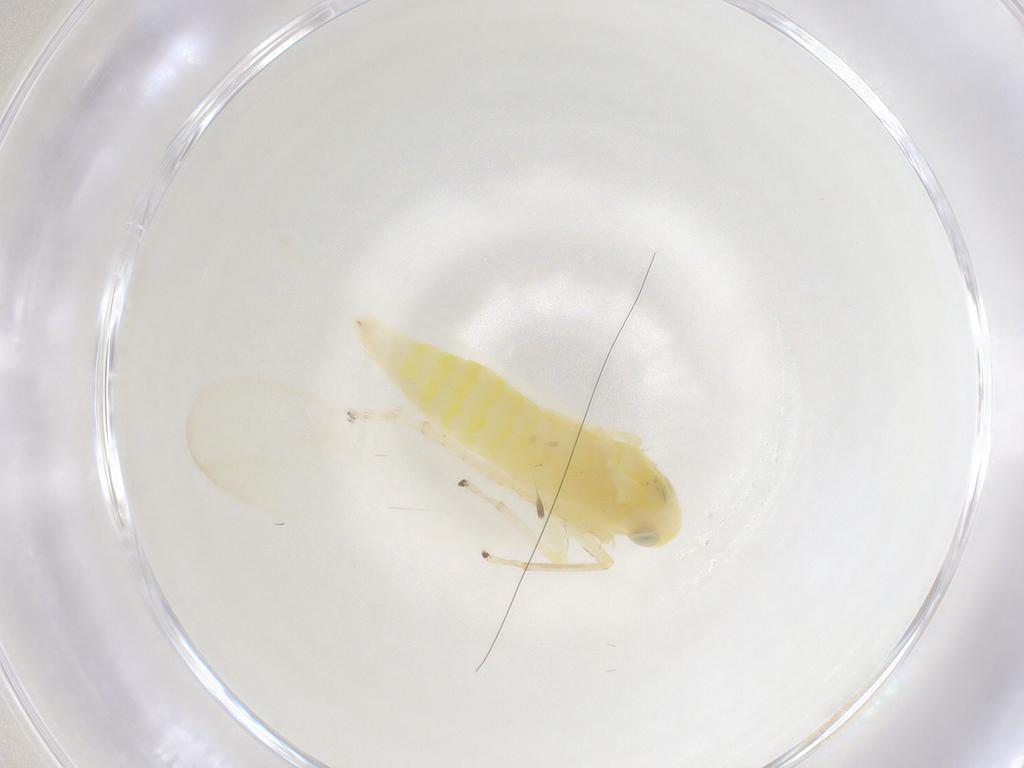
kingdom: Animalia
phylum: Arthropoda
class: Insecta
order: Hemiptera
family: Cicadellidae
